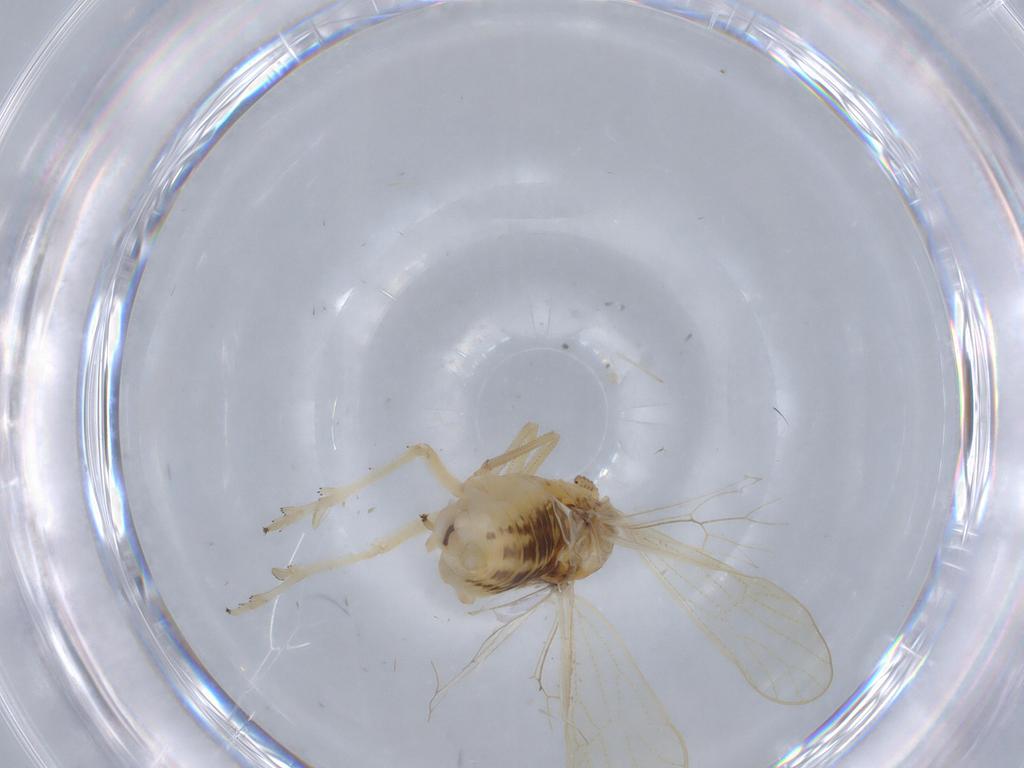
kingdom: Animalia
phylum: Arthropoda
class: Insecta
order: Hemiptera
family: Delphacidae
